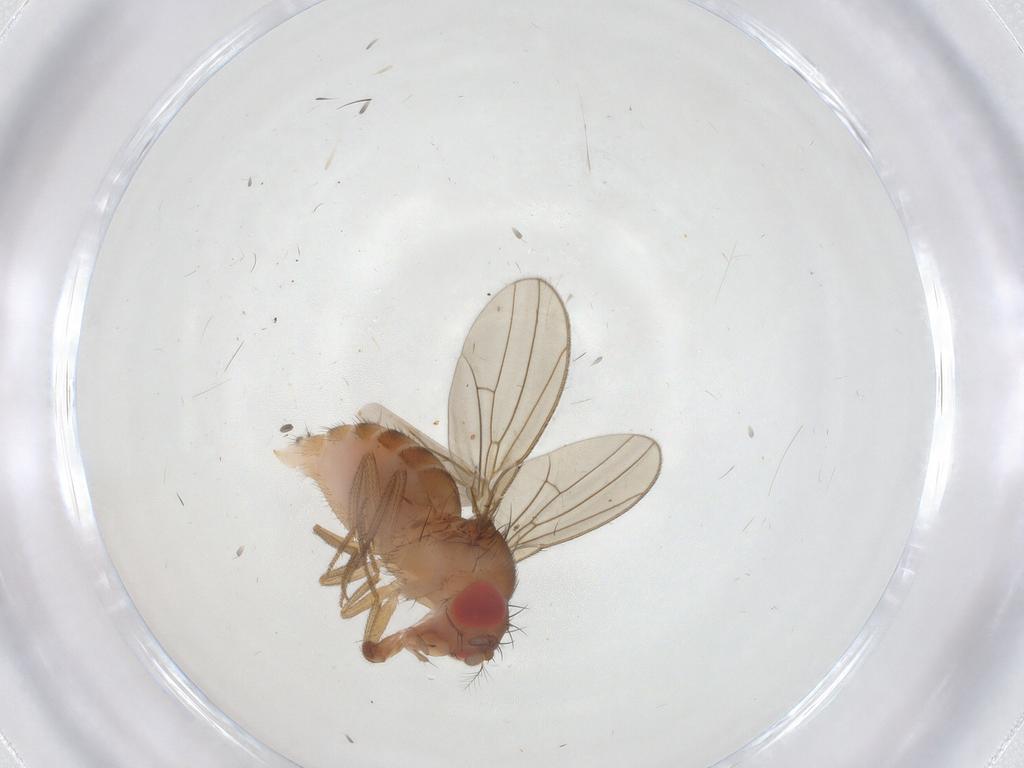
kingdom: Animalia
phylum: Arthropoda
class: Insecta
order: Diptera
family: Drosophilidae
